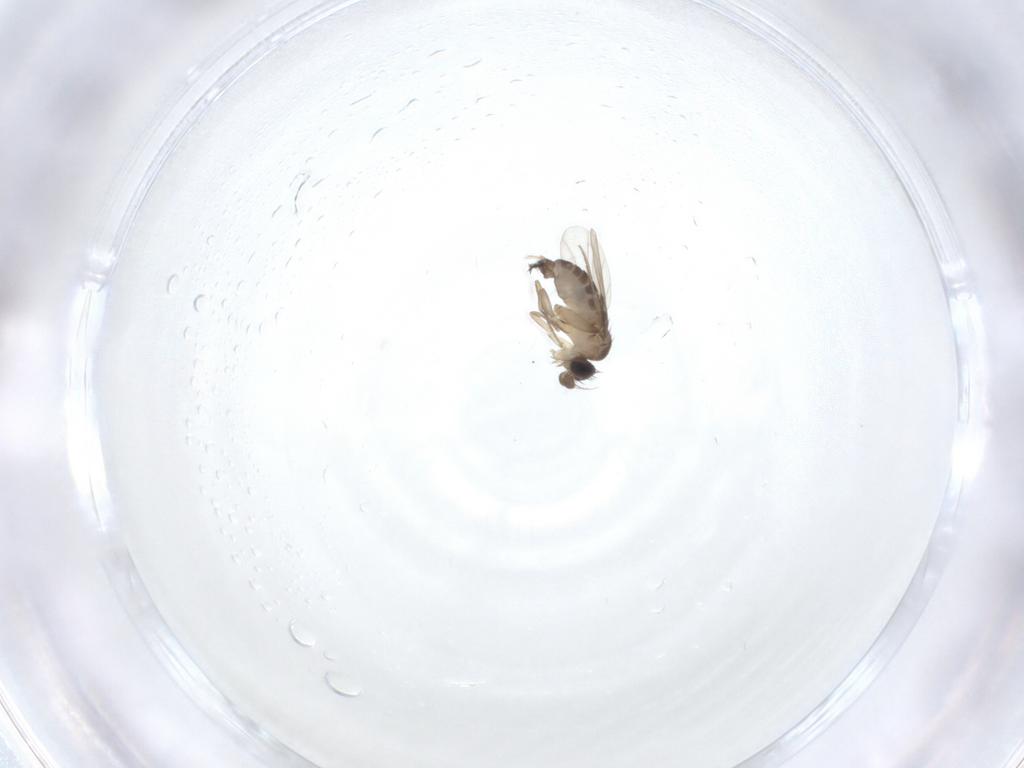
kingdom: Animalia
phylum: Arthropoda
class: Insecta
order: Diptera
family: Phoridae
